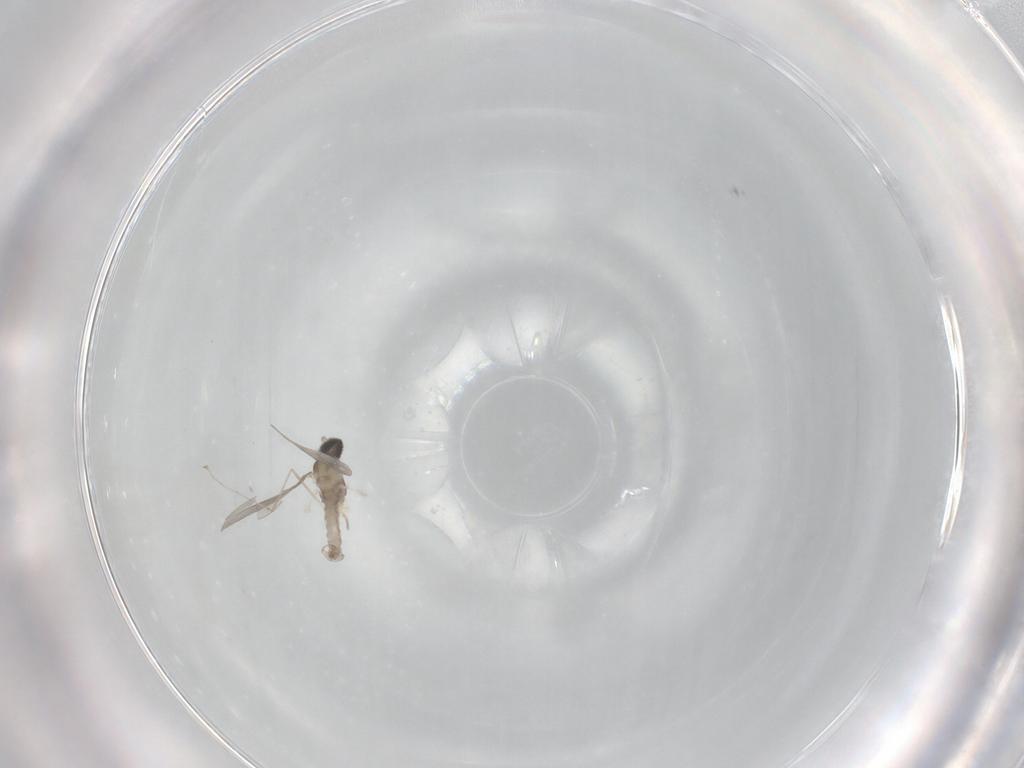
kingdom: Animalia
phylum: Arthropoda
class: Insecta
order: Diptera
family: Cecidomyiidae
